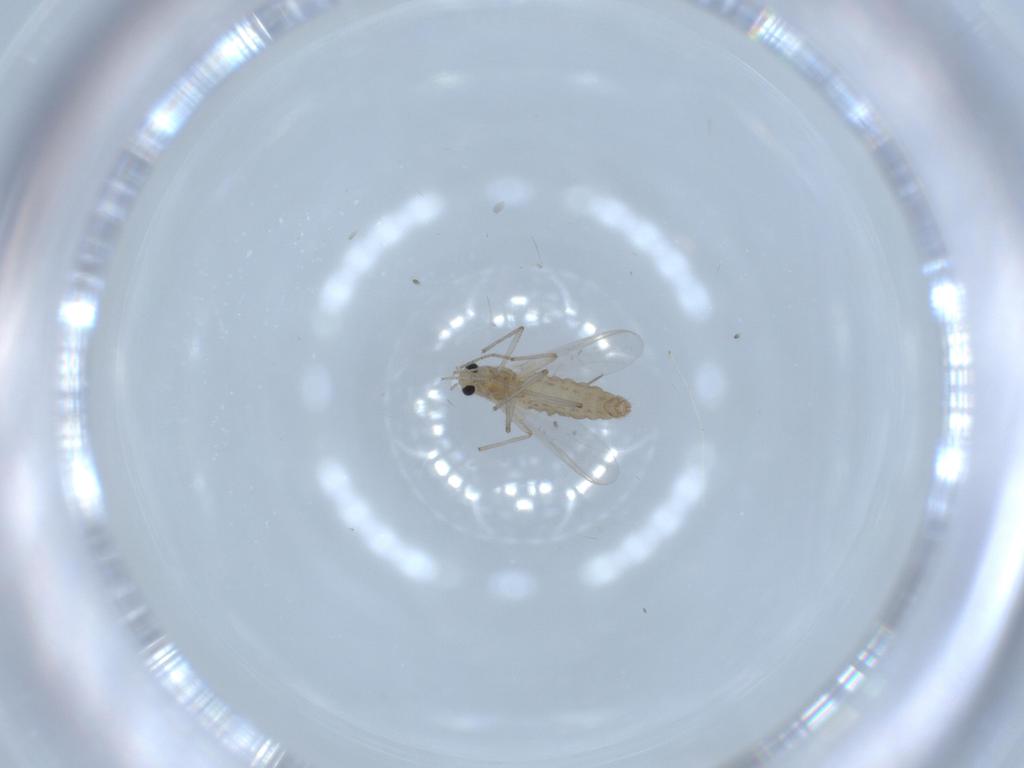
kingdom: Animalia
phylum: Arthropoda
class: Insecta
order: Diptera
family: Chironomidae
